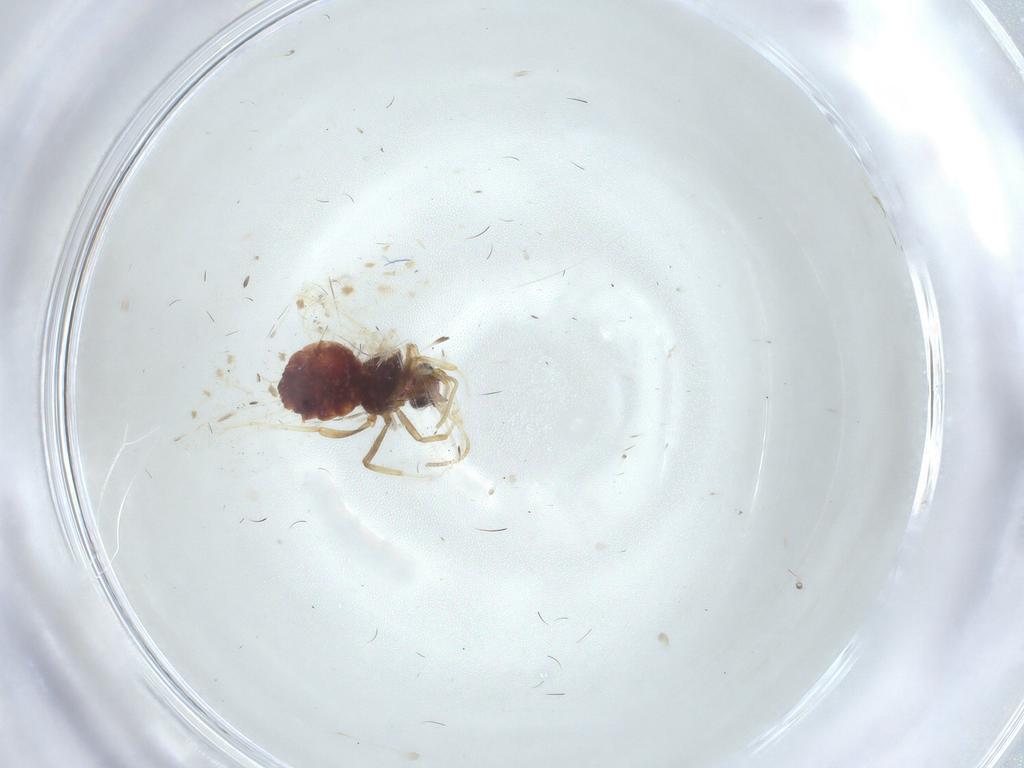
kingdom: Animalia
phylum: Arthropoda
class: Insecta
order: Neuroptera
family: Coniopterygidae
